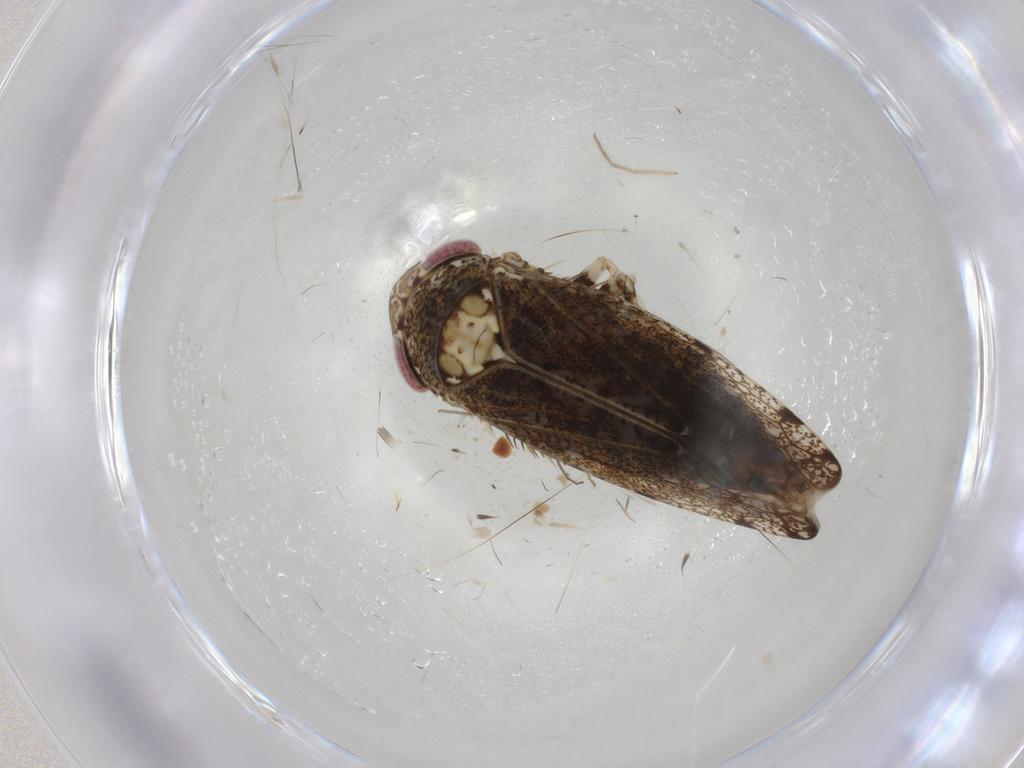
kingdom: Animalia
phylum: Arthropoda
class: Insecta
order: Hemiptera
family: Cicadellidae
